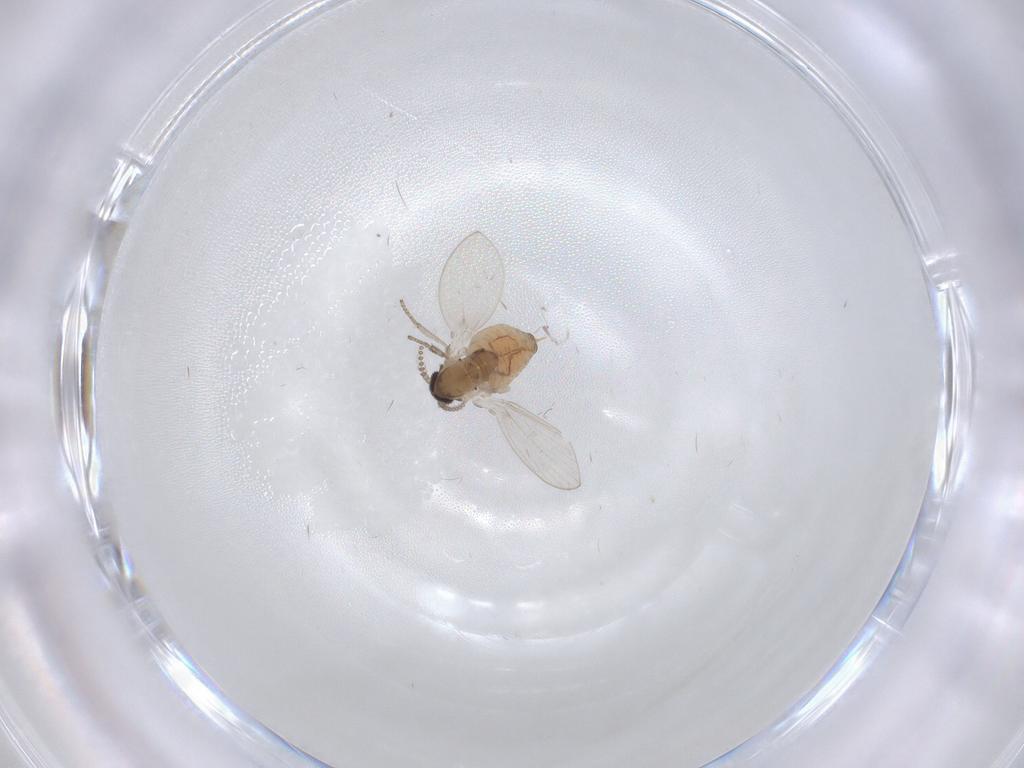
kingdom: Animalia
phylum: Arthropoda
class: Insecta
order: Diptera
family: Psychodidae
